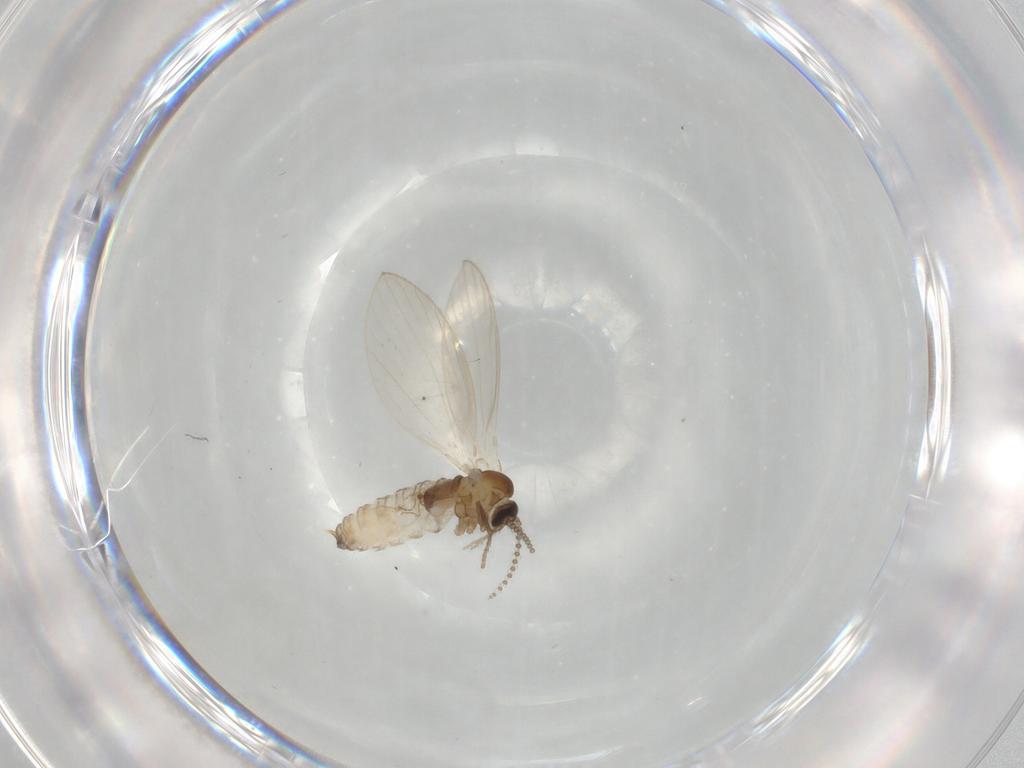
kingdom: Animalia
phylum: Arthropoda
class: Insecta
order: Diptera
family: Psychodidae
